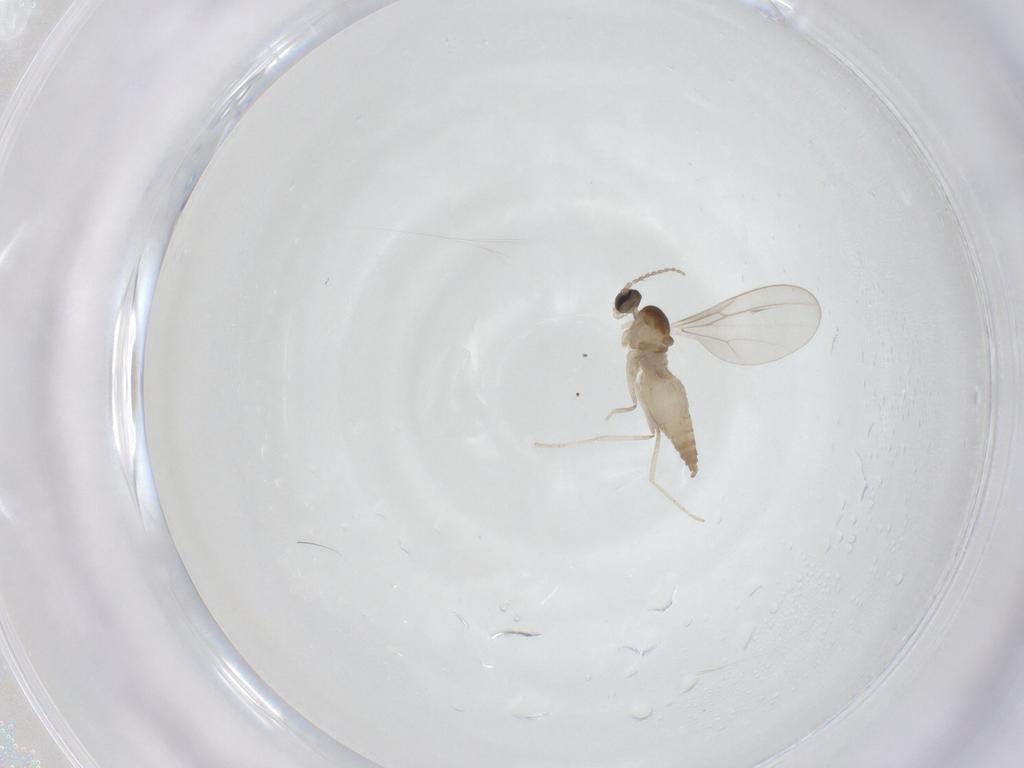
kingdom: Animalia
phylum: Arthropoda
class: Insecta
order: Diptera
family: Cecidomyiidae
